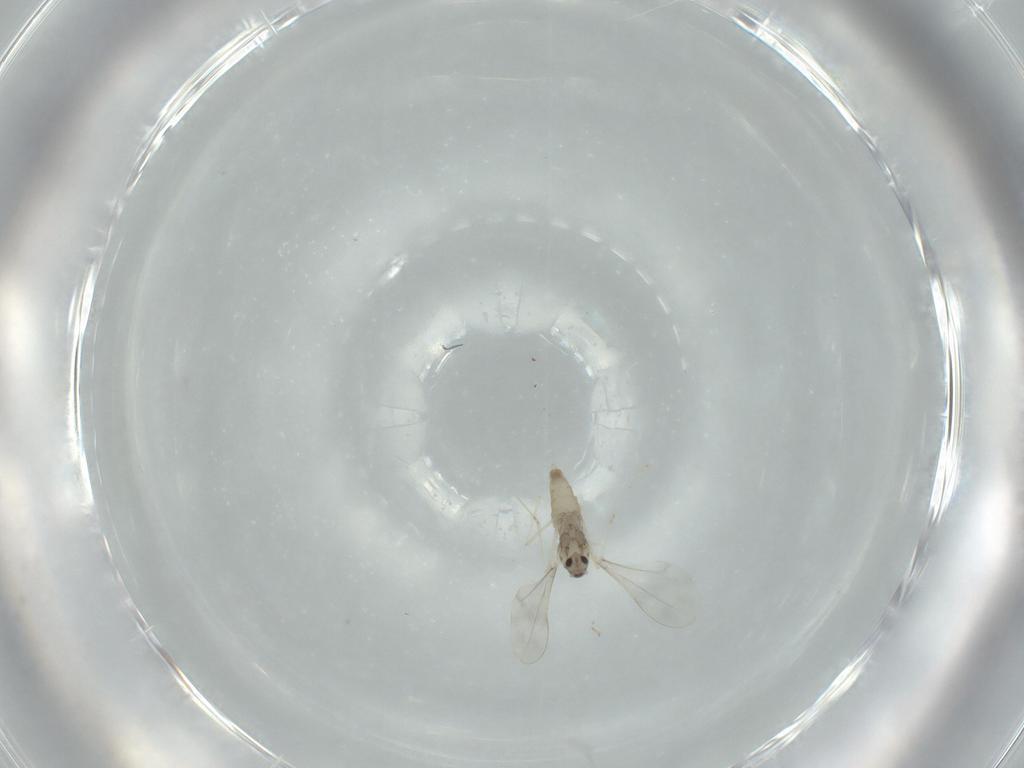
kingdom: Animalia
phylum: Arthropoda
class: Insecta
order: Diptera
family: Cecidomyiidae
